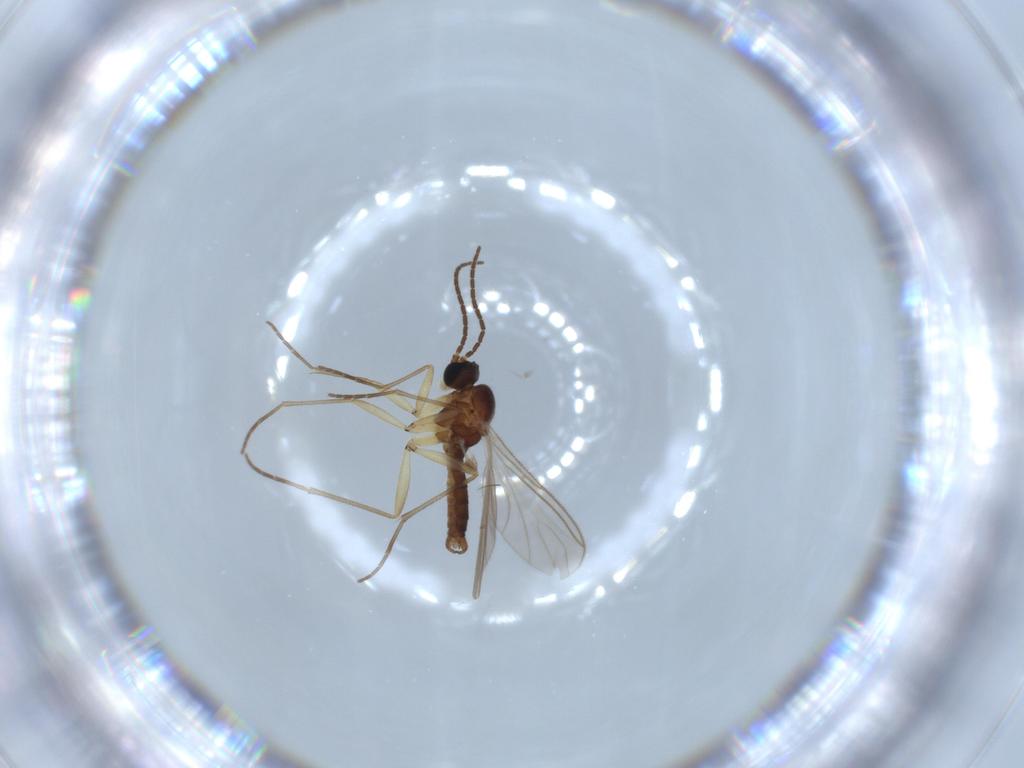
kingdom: Animalia
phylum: Arthropoda
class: Insecta
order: Diptera
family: Sciaridae
